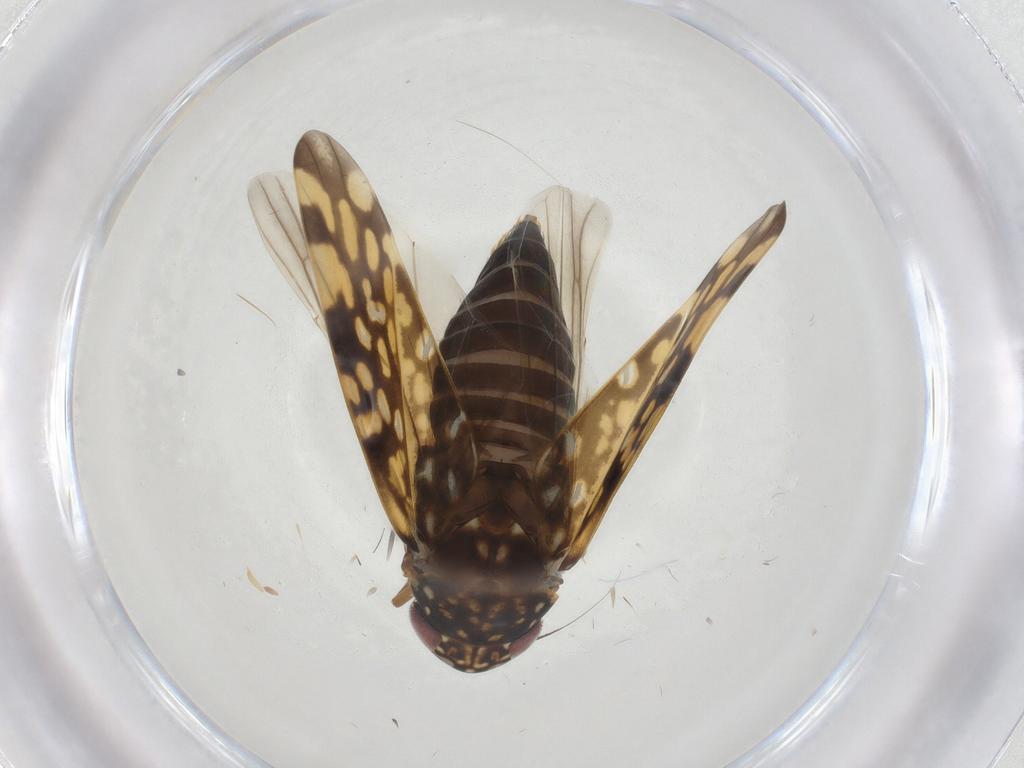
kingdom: Animalia
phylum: Arthropoda
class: Insecta
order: Hemiptera
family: Cicadellidae
